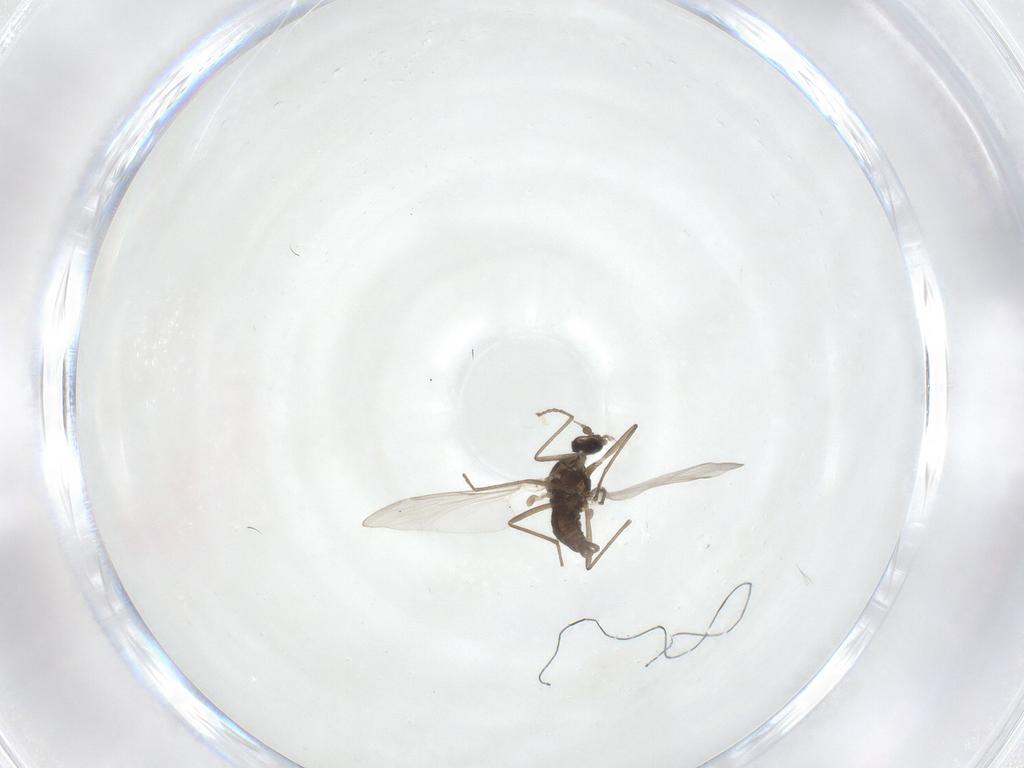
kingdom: Animalia
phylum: Arthropoda
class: Insecta
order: Diptera
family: Cecidomyiidae
